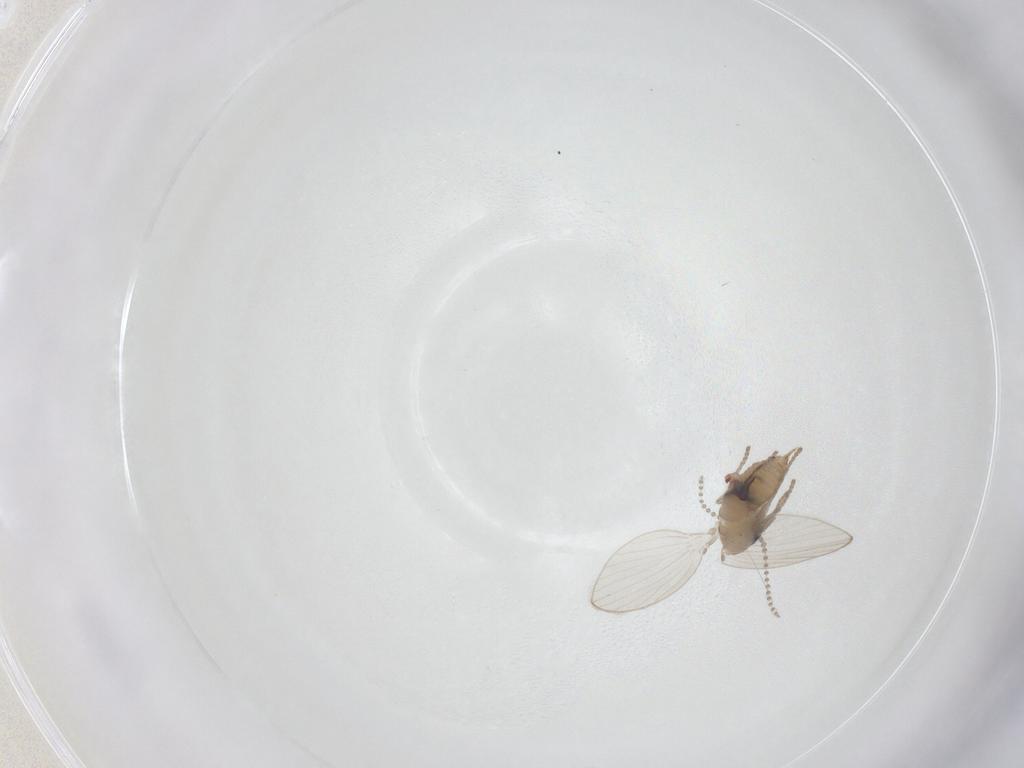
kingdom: Animalia
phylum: Arthropoda
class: Insecta
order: Diptera
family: Psychodidae
